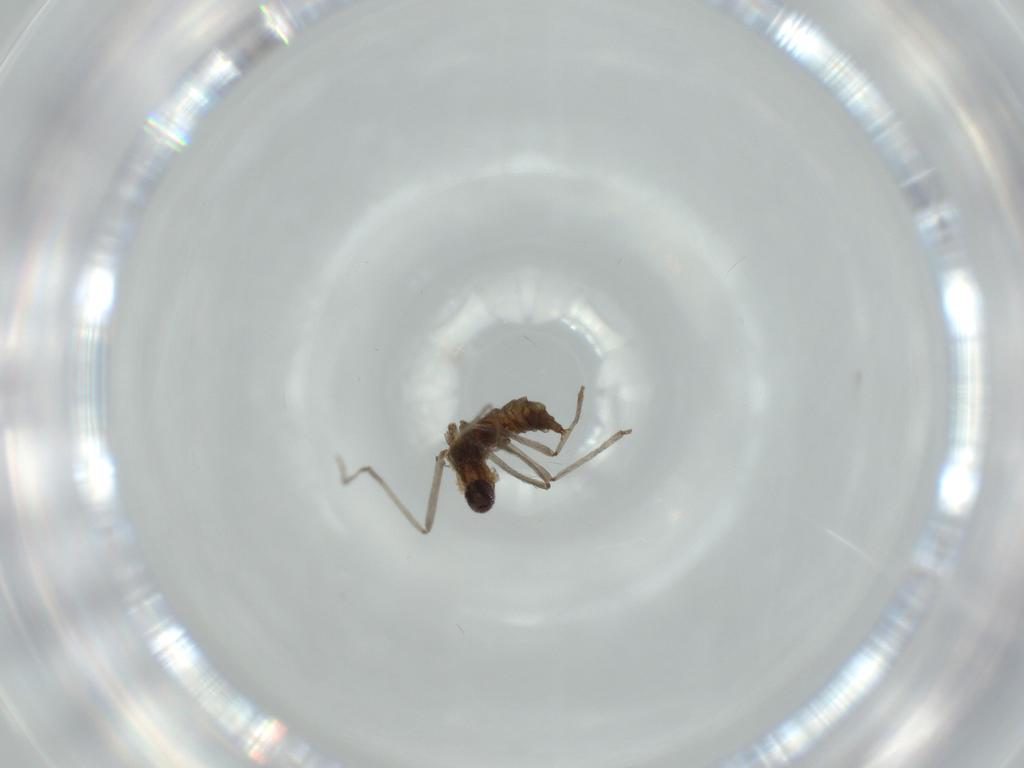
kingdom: Animalia
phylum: Arthropoda
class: Insecta
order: Diptera
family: Cecidomyiidae
